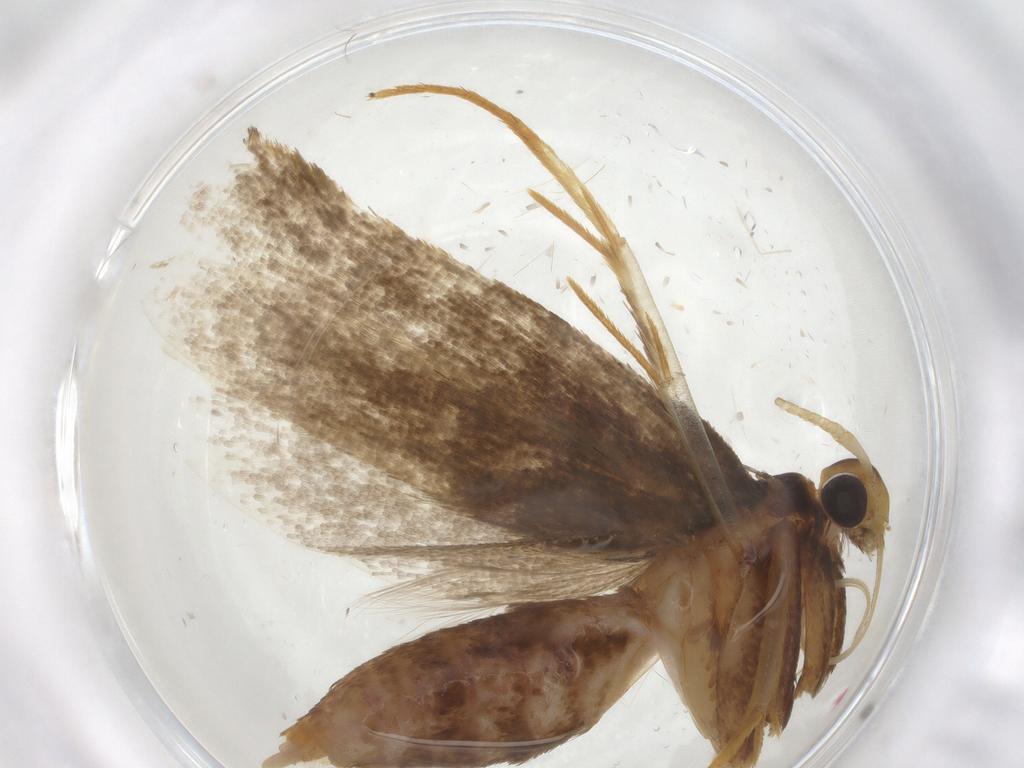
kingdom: Animalia
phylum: Arthropoda
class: Insecta
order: Lepidoptera
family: Lecithoceridae
